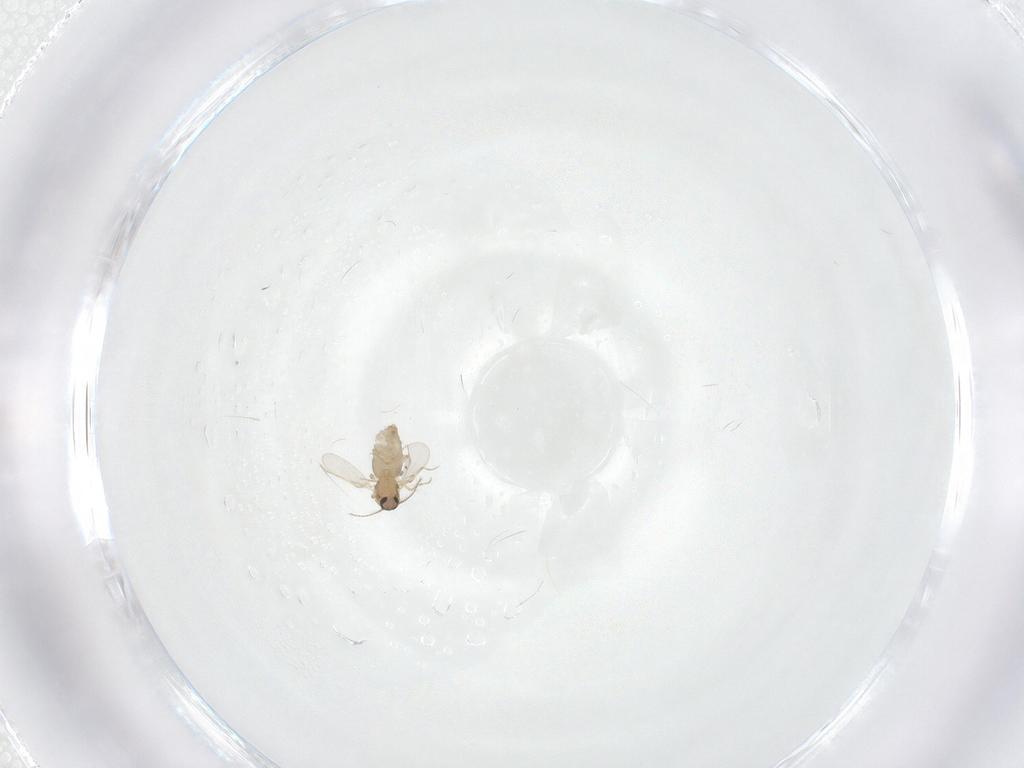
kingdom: Animalia
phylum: Arthropoda
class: Insecta
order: Diptera
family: Ceratopogonidae
